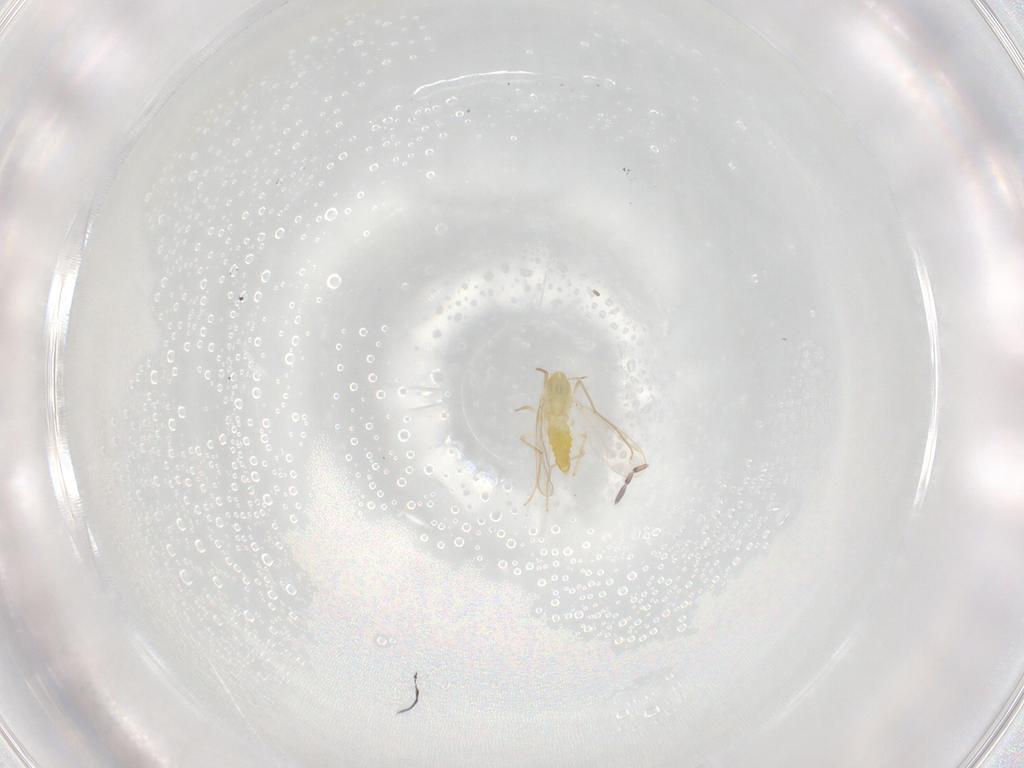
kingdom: Animalia
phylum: Arthropoda
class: Insecta
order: Diptera
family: Chironomidae
